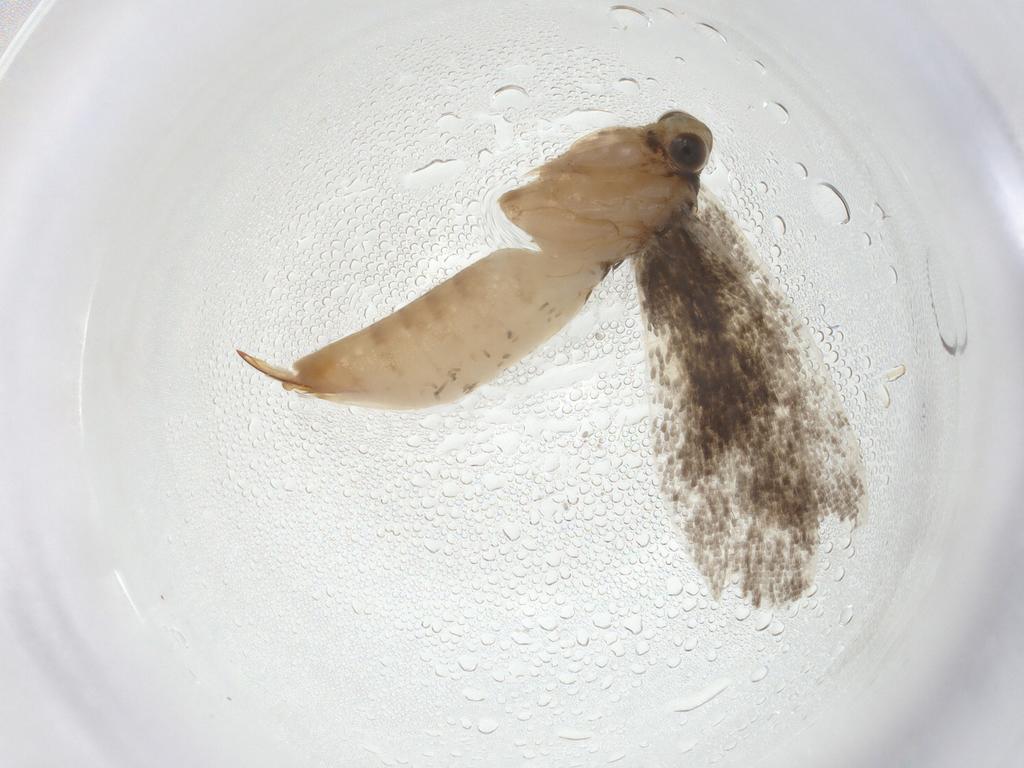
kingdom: Animalia
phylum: Arthropoda
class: Insecta
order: Lepidoptera
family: Tineidae
